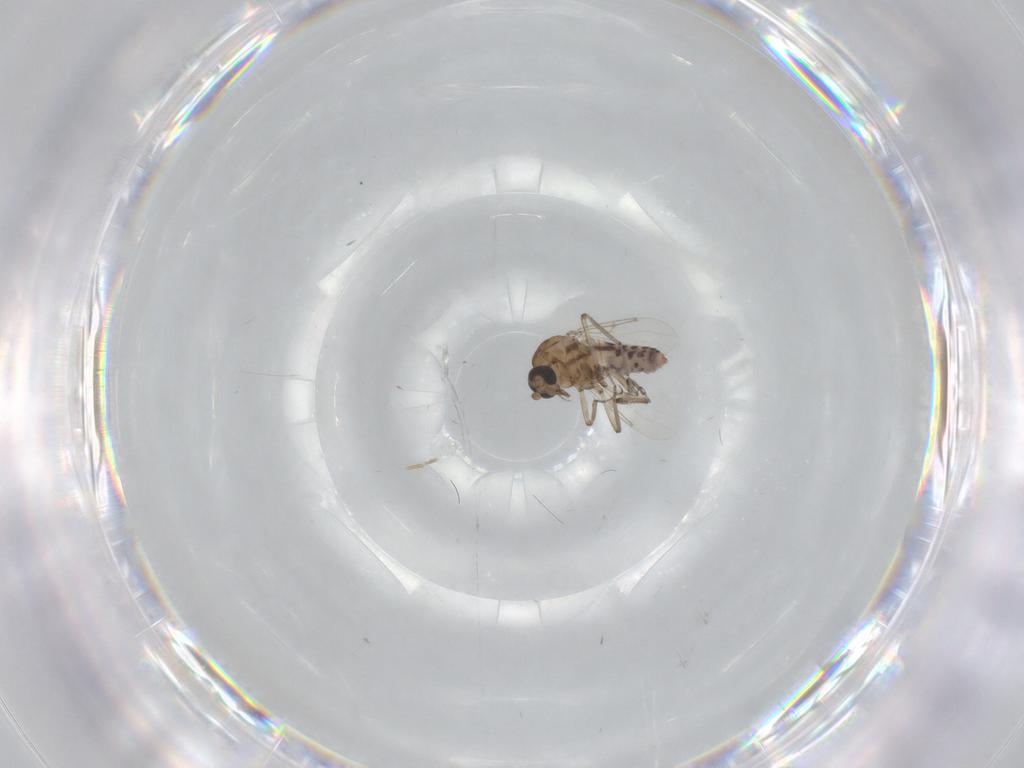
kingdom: Animalia
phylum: Arthropoda
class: Insecta
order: Diptera
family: Ceratopogonidae
